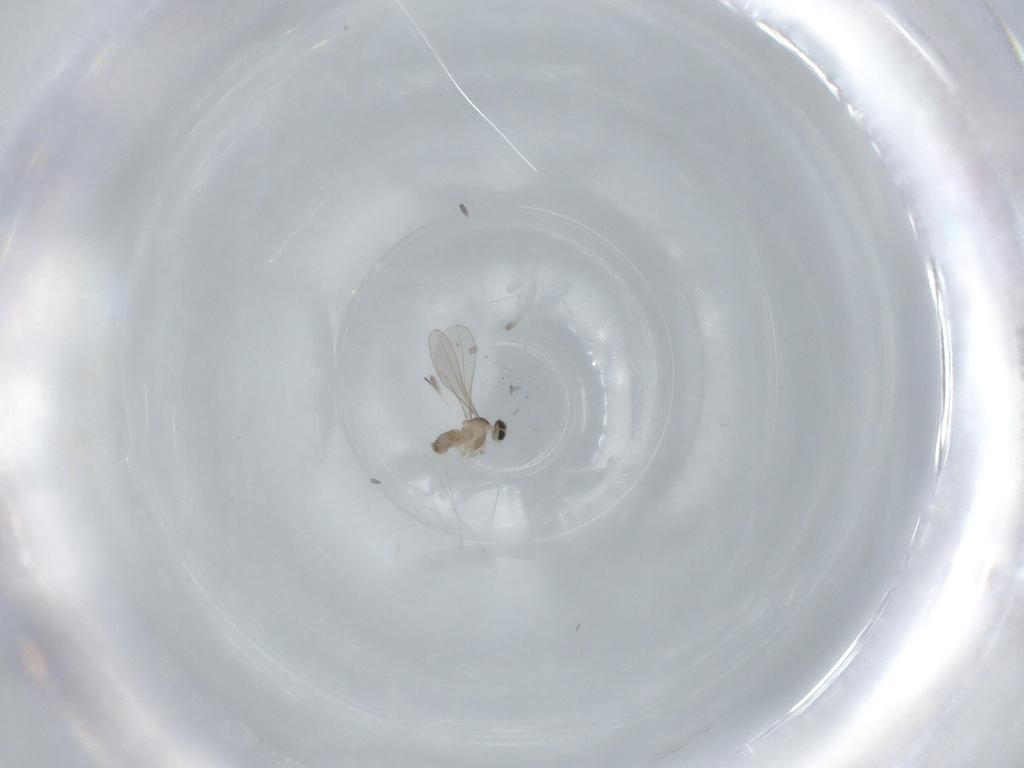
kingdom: Animalia
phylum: Arthropoda
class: Insecta
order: Diptera
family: Cecidomyiidae
